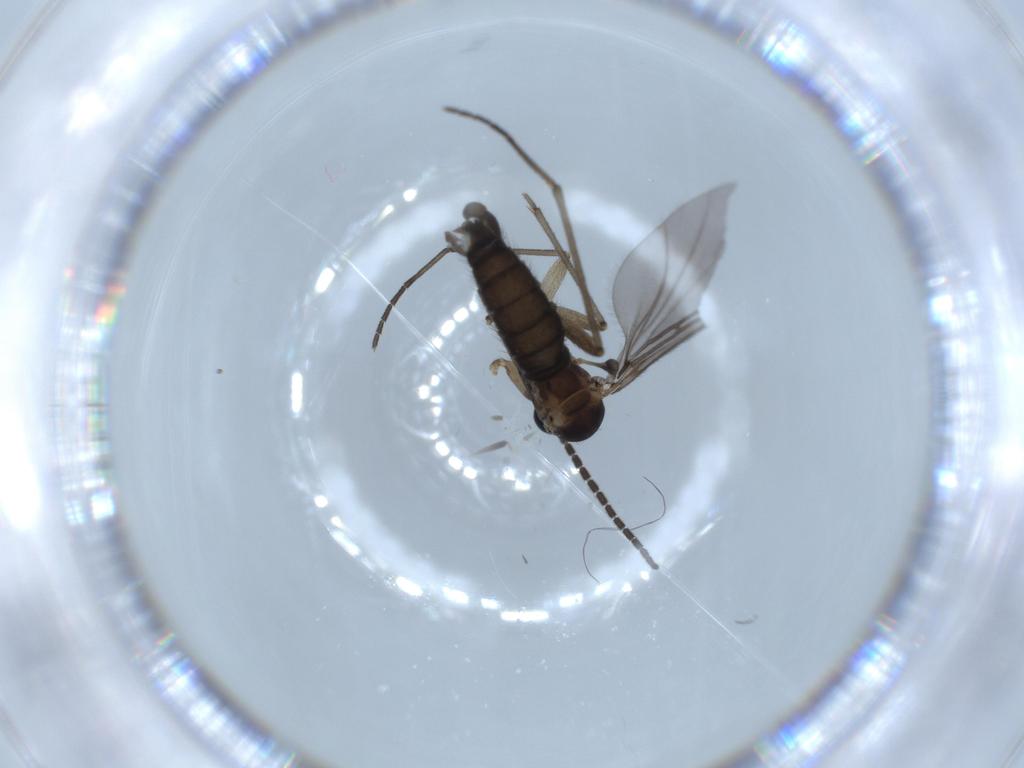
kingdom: Animalia
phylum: Arthropoda
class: Insecta
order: Diptera
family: Sciaridae
